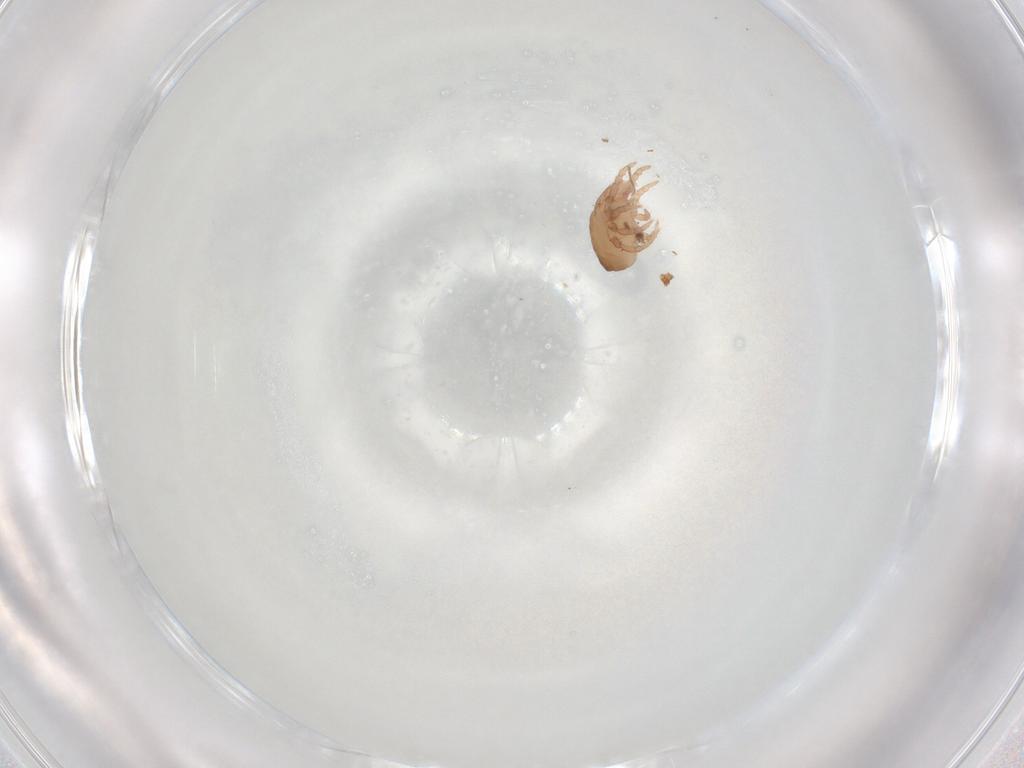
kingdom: Animalia
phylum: Arthropoda
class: Arachnida
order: Sarcoptiformes
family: Hermanniidae
